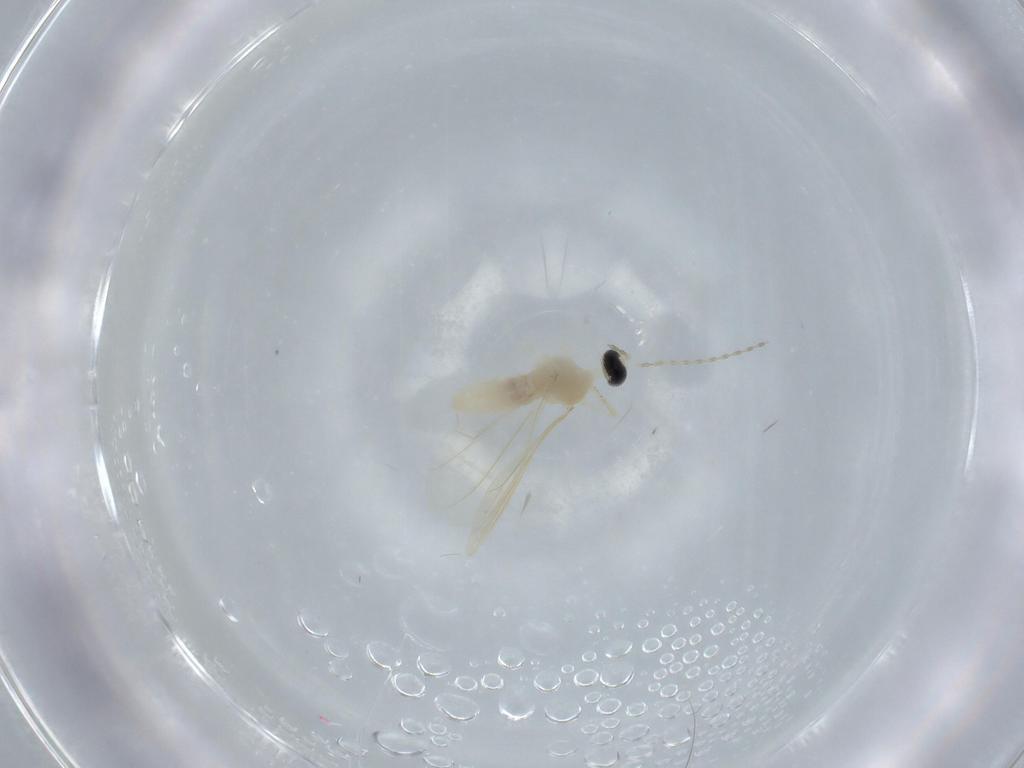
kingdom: Animalia
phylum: Arthropoda
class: Insecta
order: Diptera
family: Cecidomyiidae
